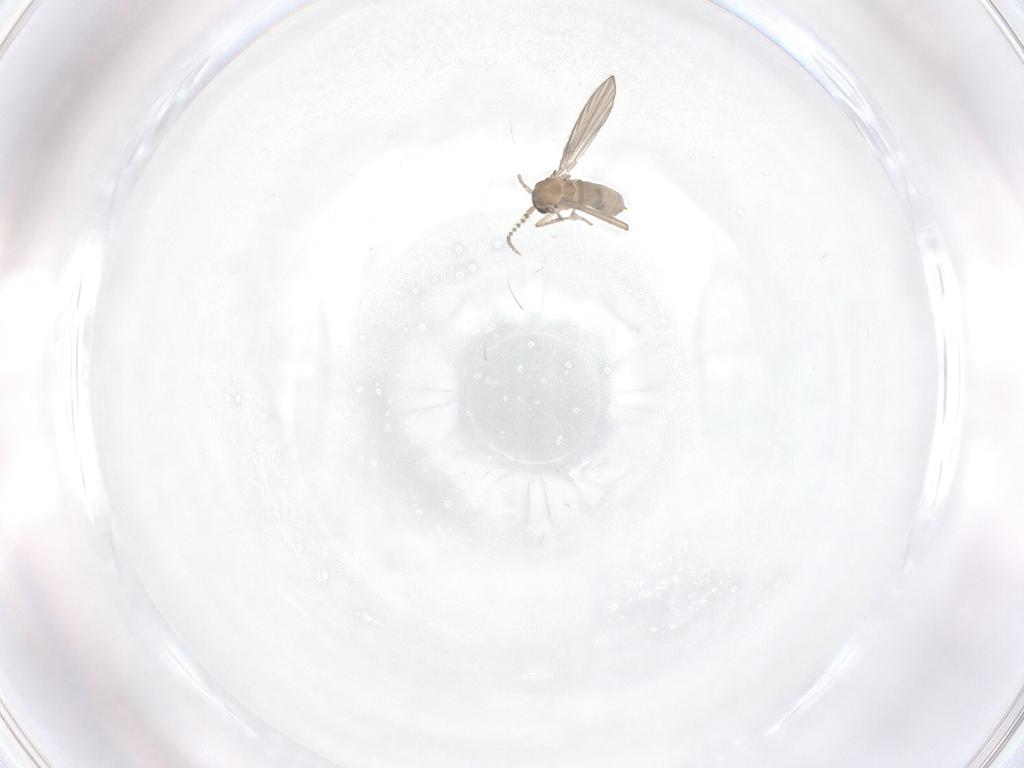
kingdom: Animalia
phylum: Arthropoda
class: Insecta
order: Diptera
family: Psychodidae
